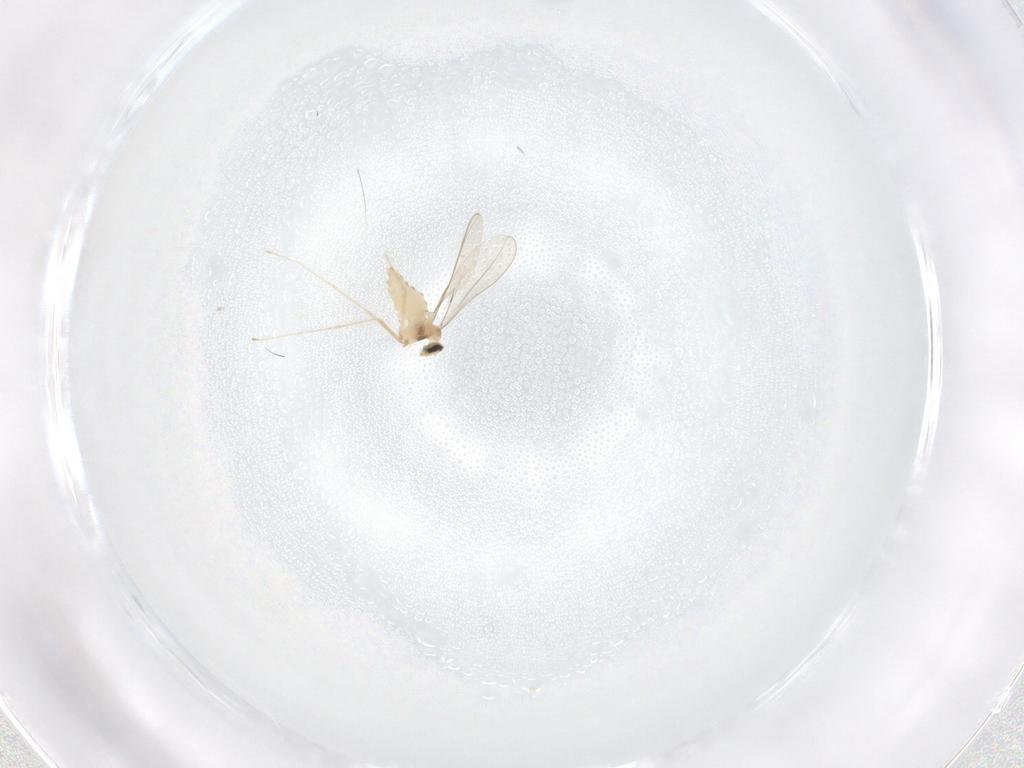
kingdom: Animalia
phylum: Arthropoda
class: Insecta
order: Diptera
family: Cecidomyiidae
